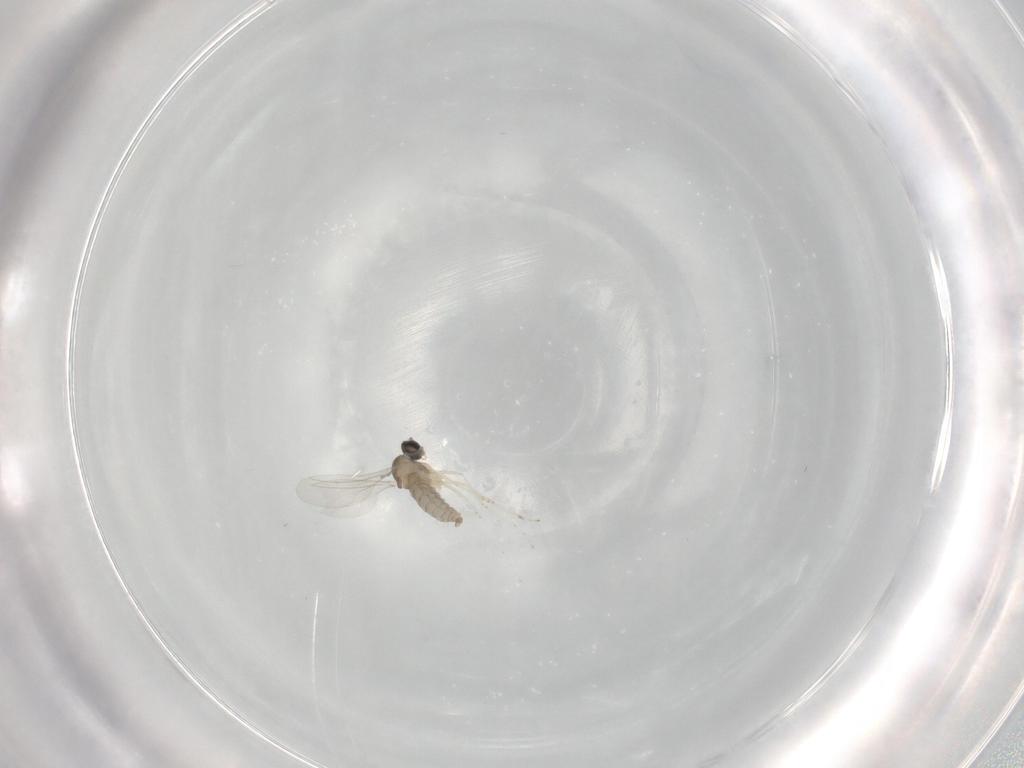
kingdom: Animalia
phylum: Arthropoda
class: Insecta
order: Diptera
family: Cecidomyiidae
